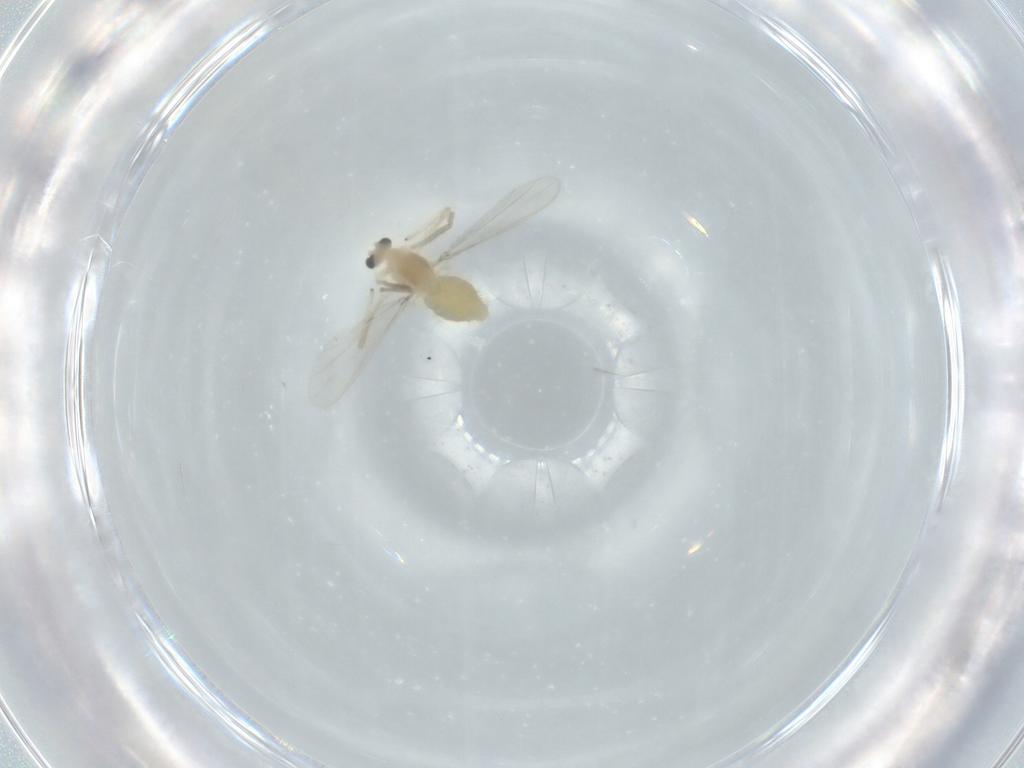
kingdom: Animalia
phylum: Arthropoda
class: Insecta
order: Diptera
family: Chironomidae
